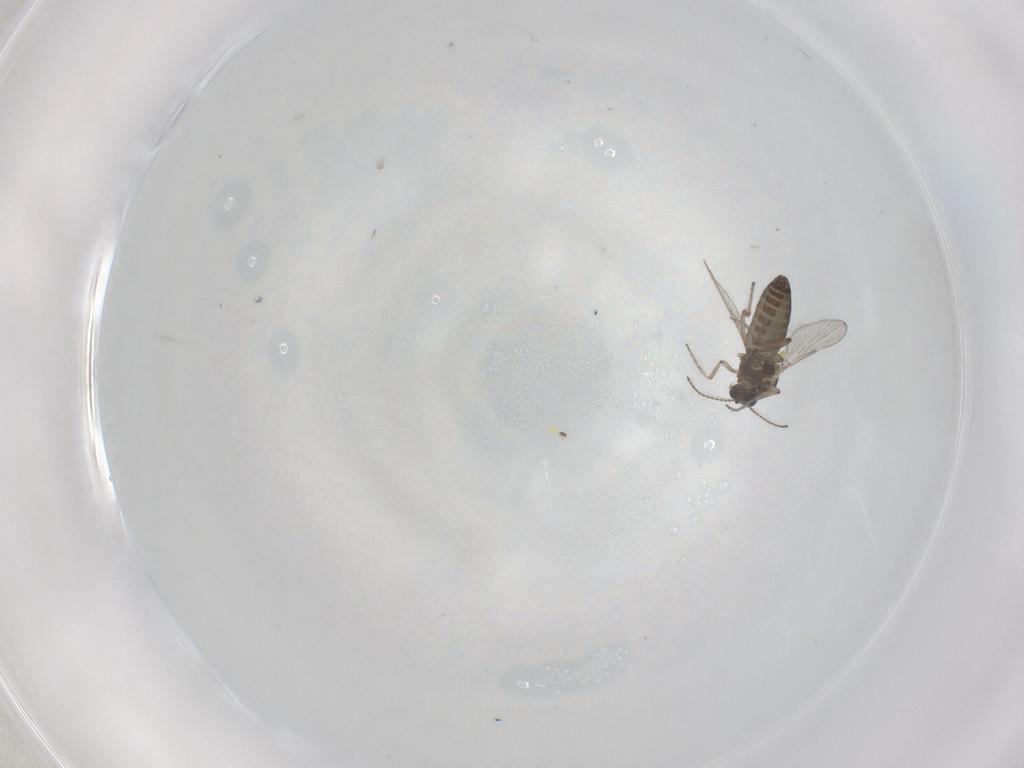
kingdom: Animalia
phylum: Arthropoda
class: Insecta
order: Diptera
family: Ceratopogonidae
